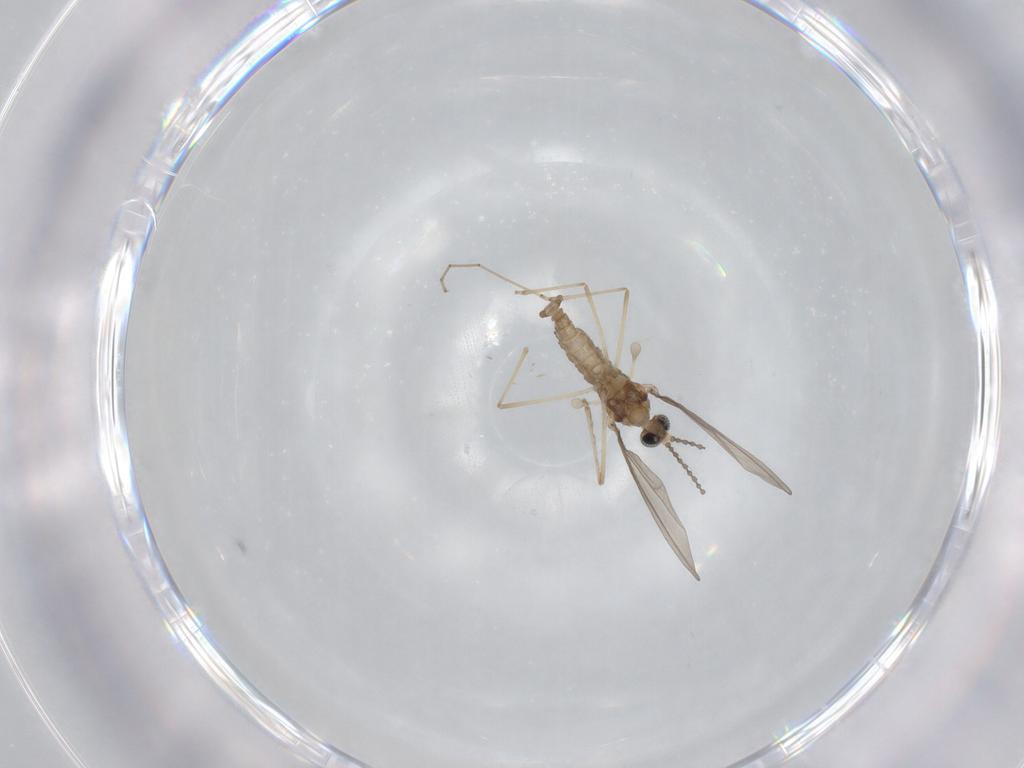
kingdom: Animalia
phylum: Arthropoda
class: Insecta
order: Diptera
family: Cecidomyiidae
